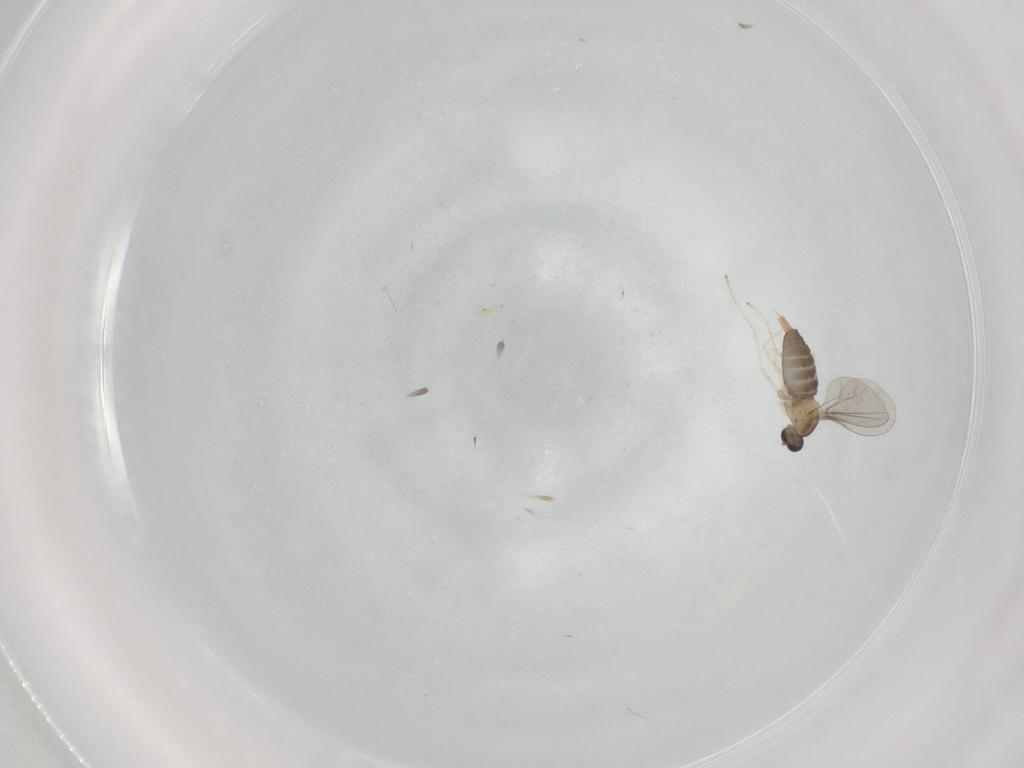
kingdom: Animalia
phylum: Arthropoda
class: Insecta
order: Diptera
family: Cecidomyiidae
